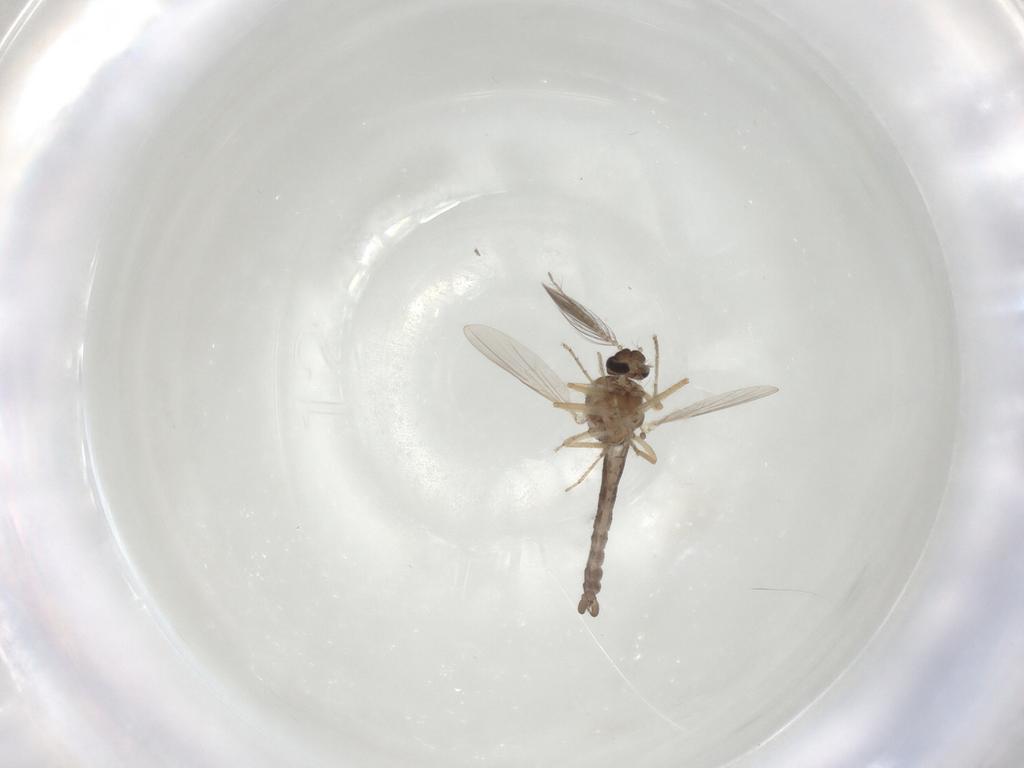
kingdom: Animalia
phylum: Arthropoda
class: Insecta
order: Diptera
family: Ceratopogonidae
